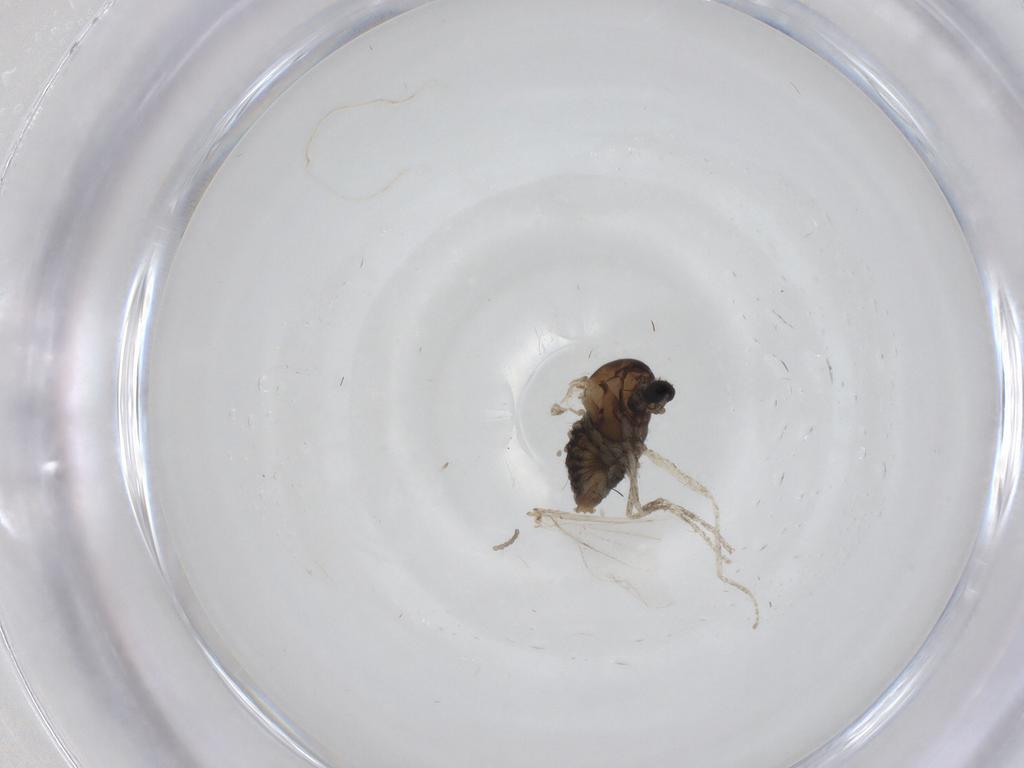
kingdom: Animalia
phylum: Arthropoda
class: Insecta
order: Diptera
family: Cecidomyiidae
